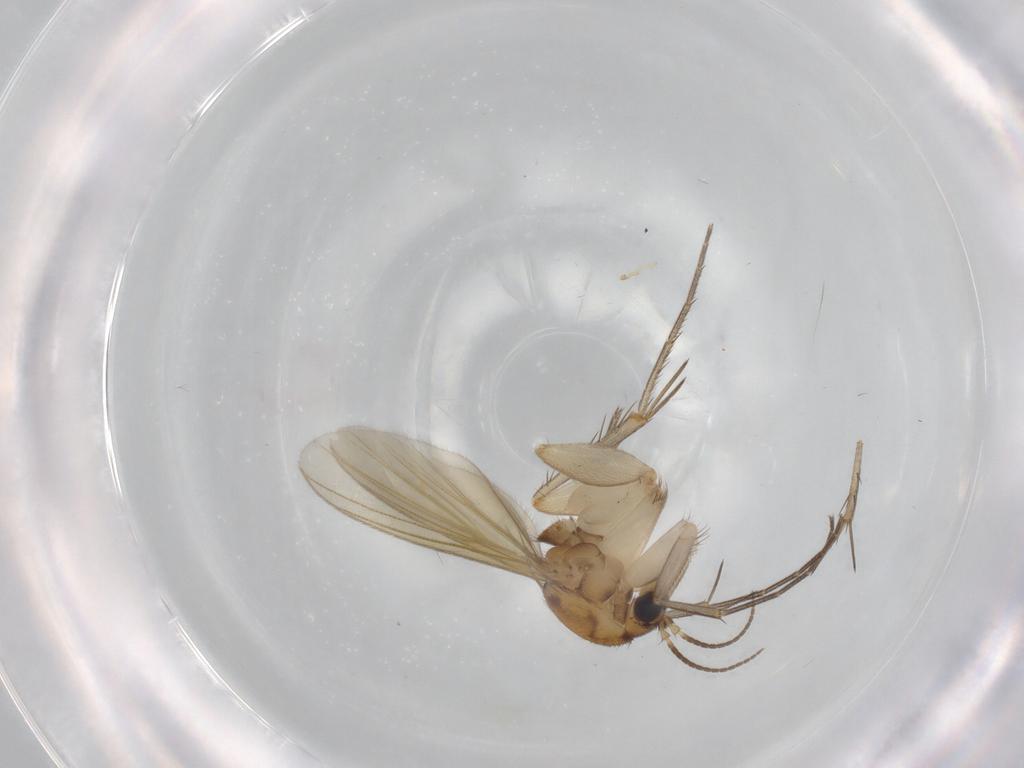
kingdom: Animalia
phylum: Arthropoda
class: Insecta
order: Diptera
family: Mycetophilidae
